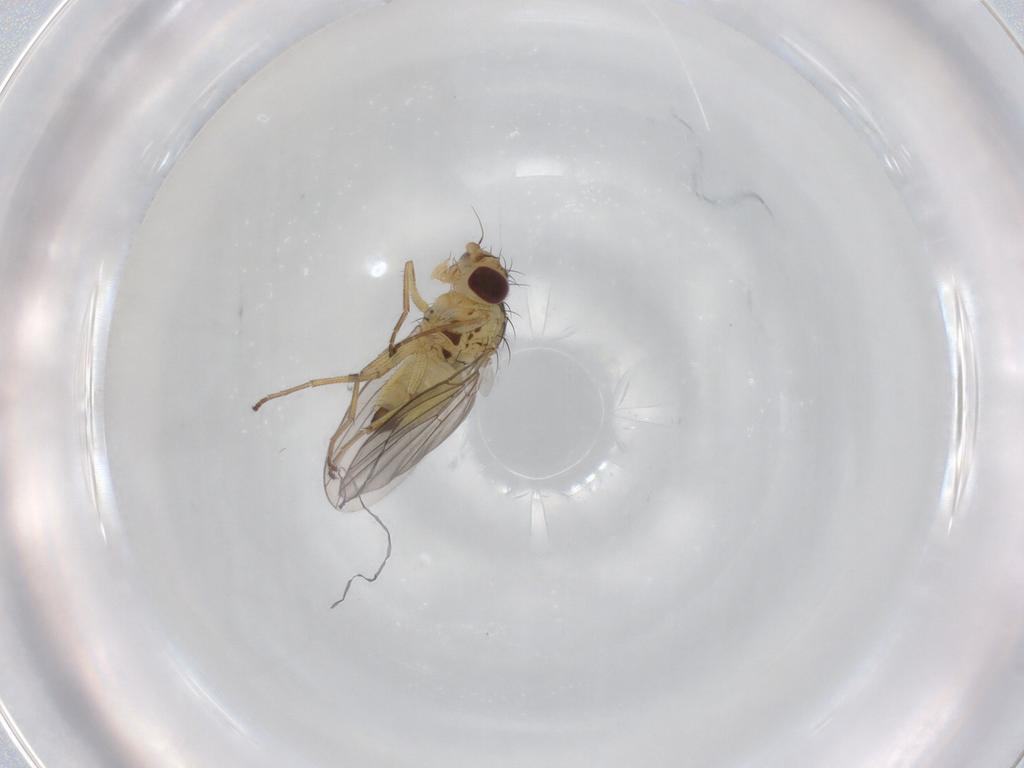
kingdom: Animalia
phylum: Arthropoda
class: Insecta
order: Diptera
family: Agromyzidae
